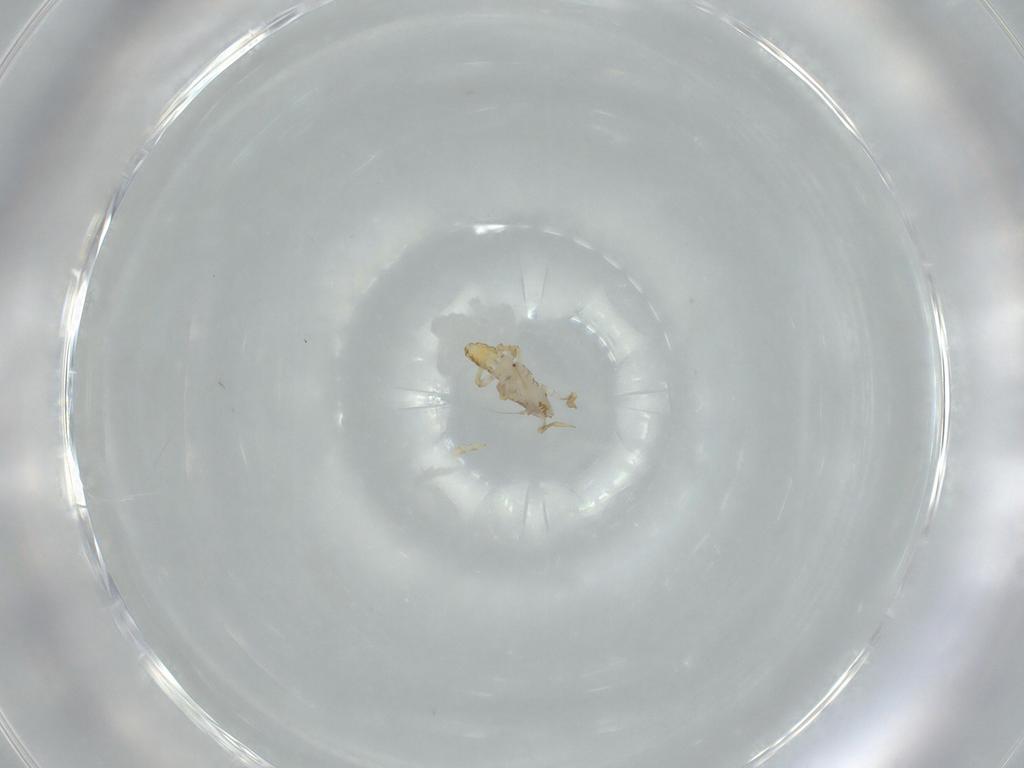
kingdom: Animalia
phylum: Arthropoda
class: Insecta
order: Hemiptera
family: Delphacidae
